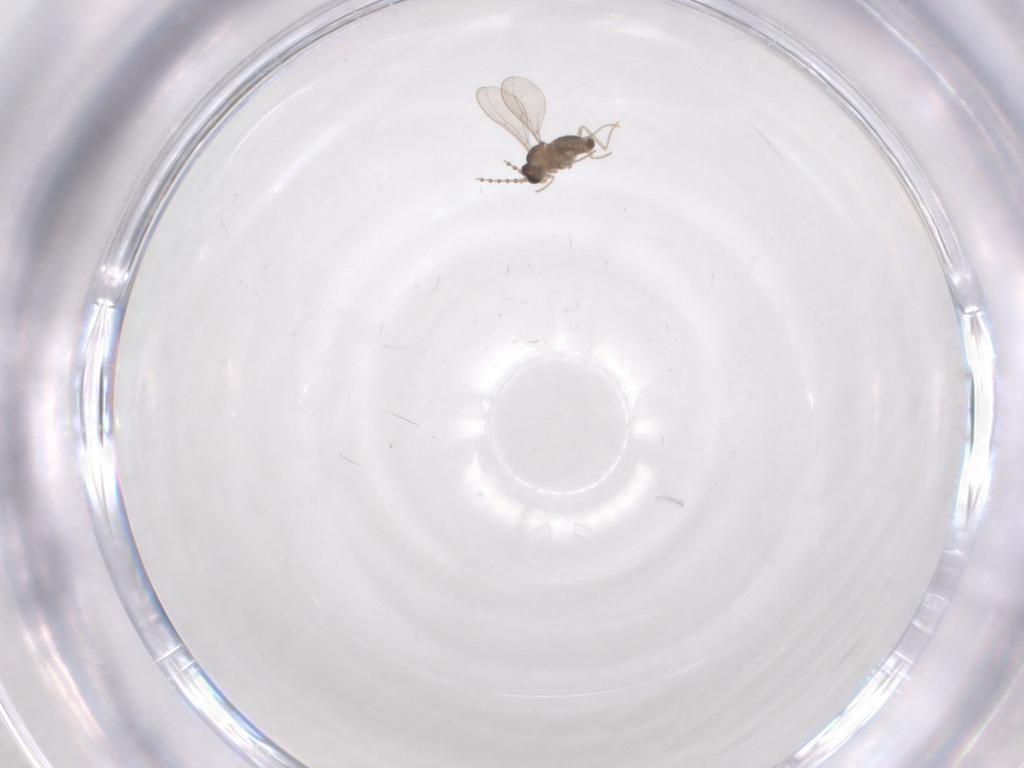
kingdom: Animalia
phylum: Arthropoda
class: Insecta
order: Diptera
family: Cecidomyiidae
